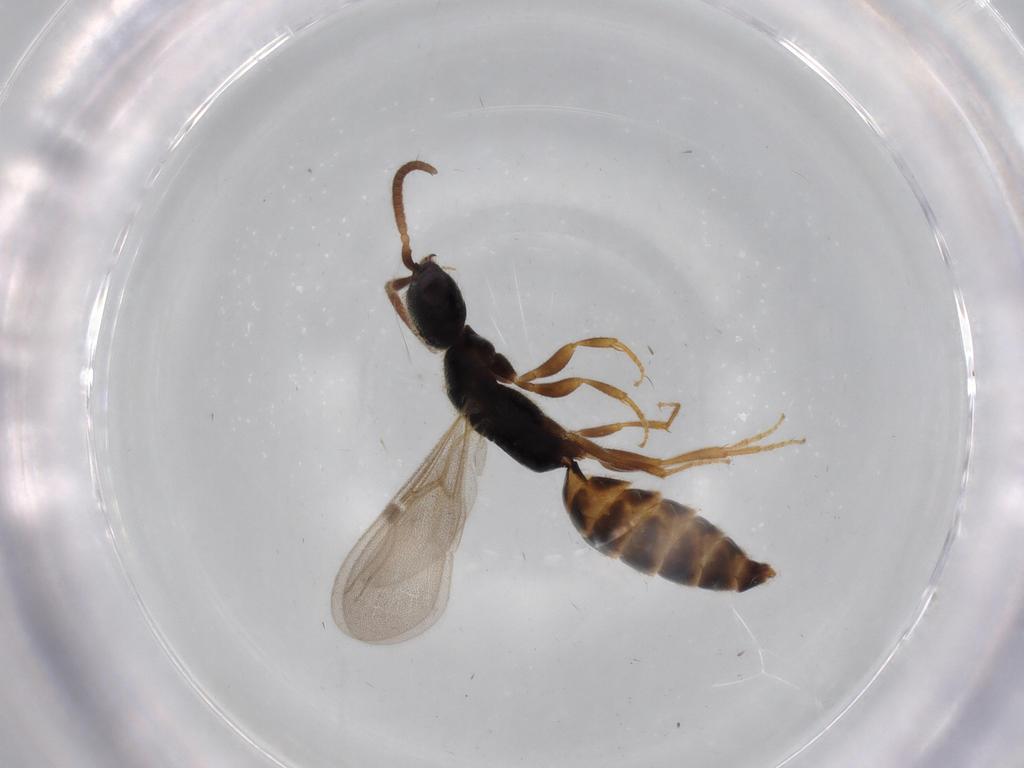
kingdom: Animalia
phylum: Arthropoda
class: Insecta
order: Hymenoptera
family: Bethylidae
